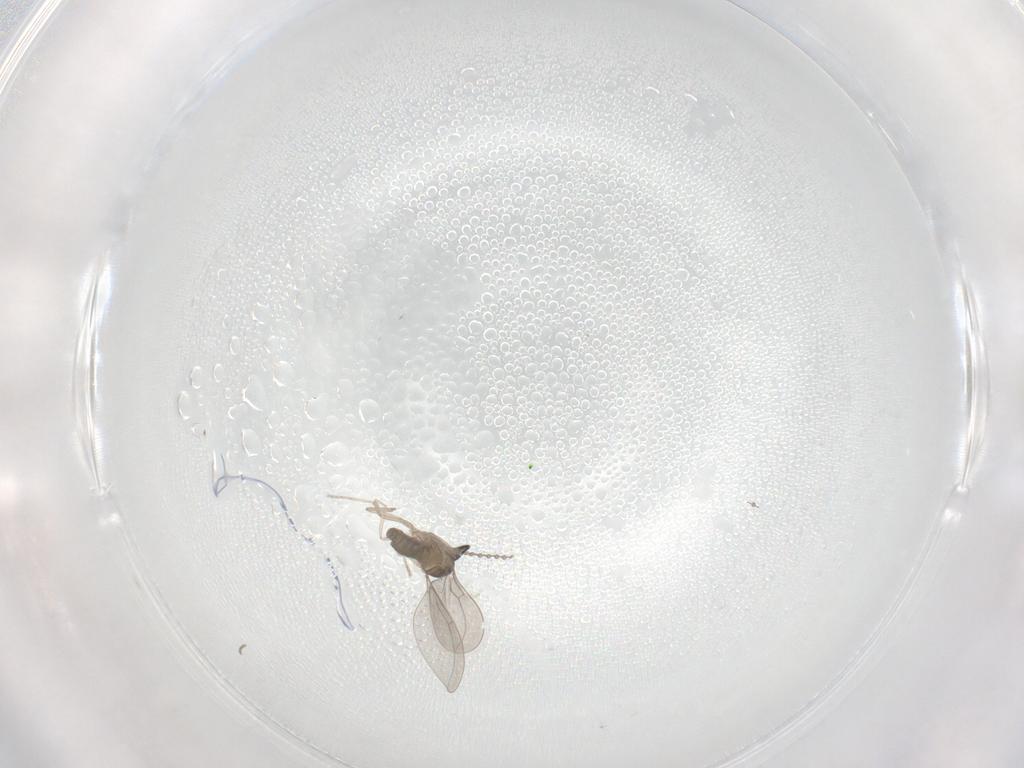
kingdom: Animalia
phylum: Arthropoda
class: Insecta
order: Diptera
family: Cecidomyiidae
